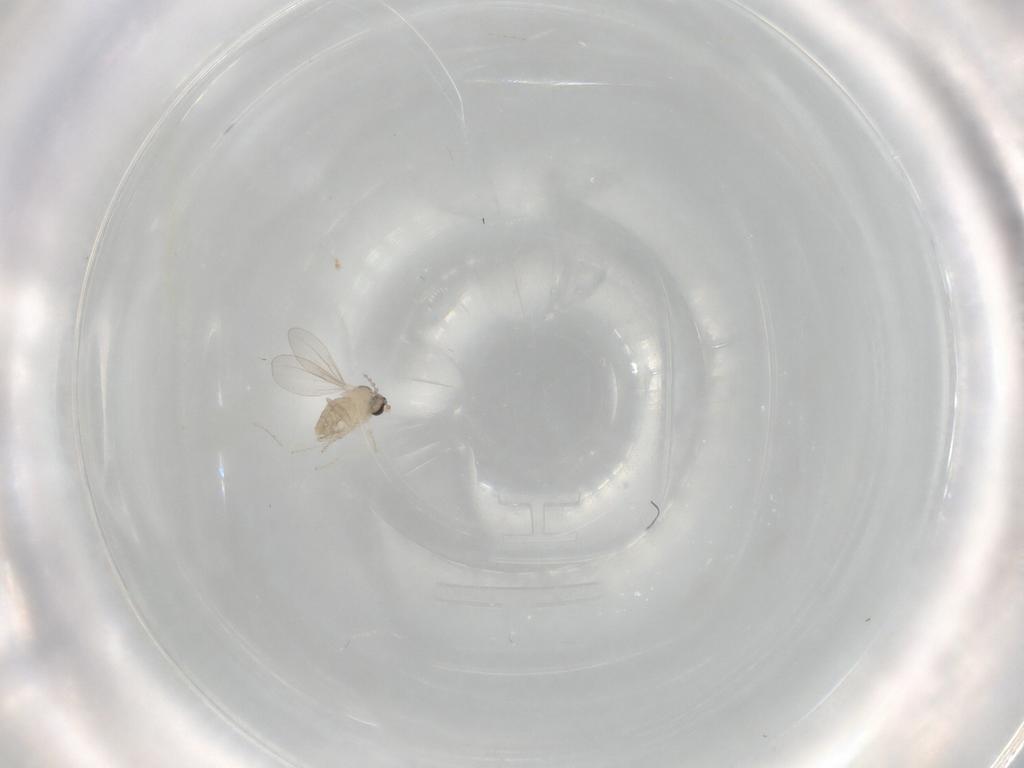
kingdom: Animalia
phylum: Arthropoda
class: Insecta
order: Diptera
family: Cecidomyiidae
